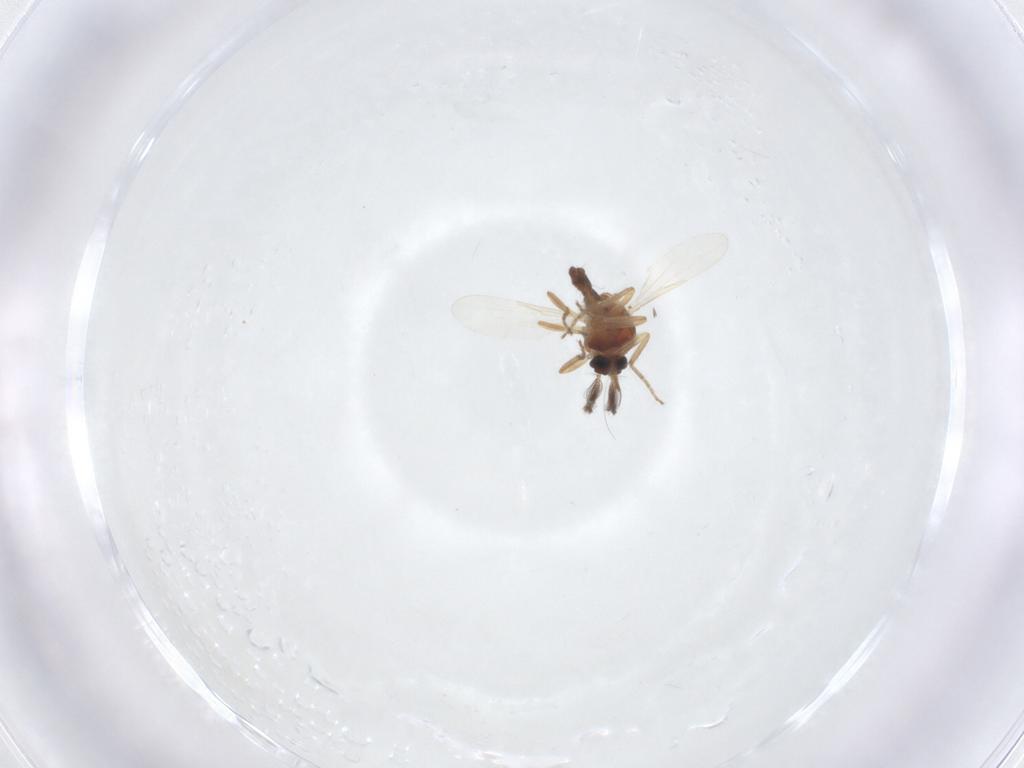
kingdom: Animalia
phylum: Arthropoda
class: Insecta
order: Diptera
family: Ceratopogonidae
